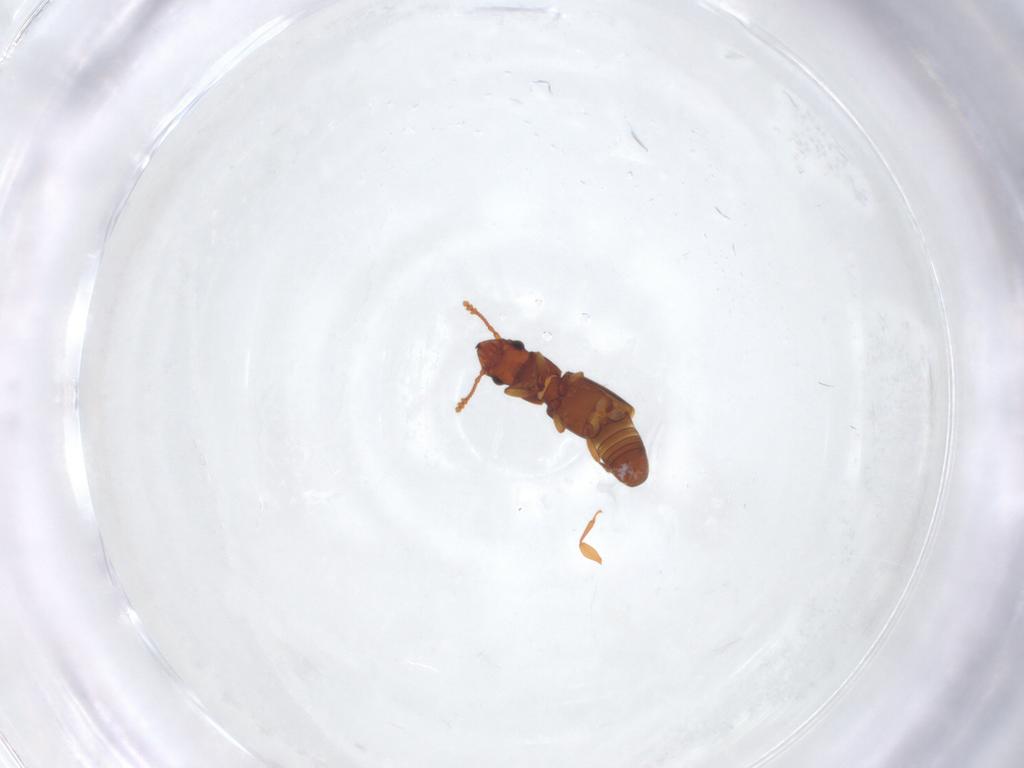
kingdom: Animalia
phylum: Arthropoda
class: Insecta
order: Coleoptera
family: Smicripidae
